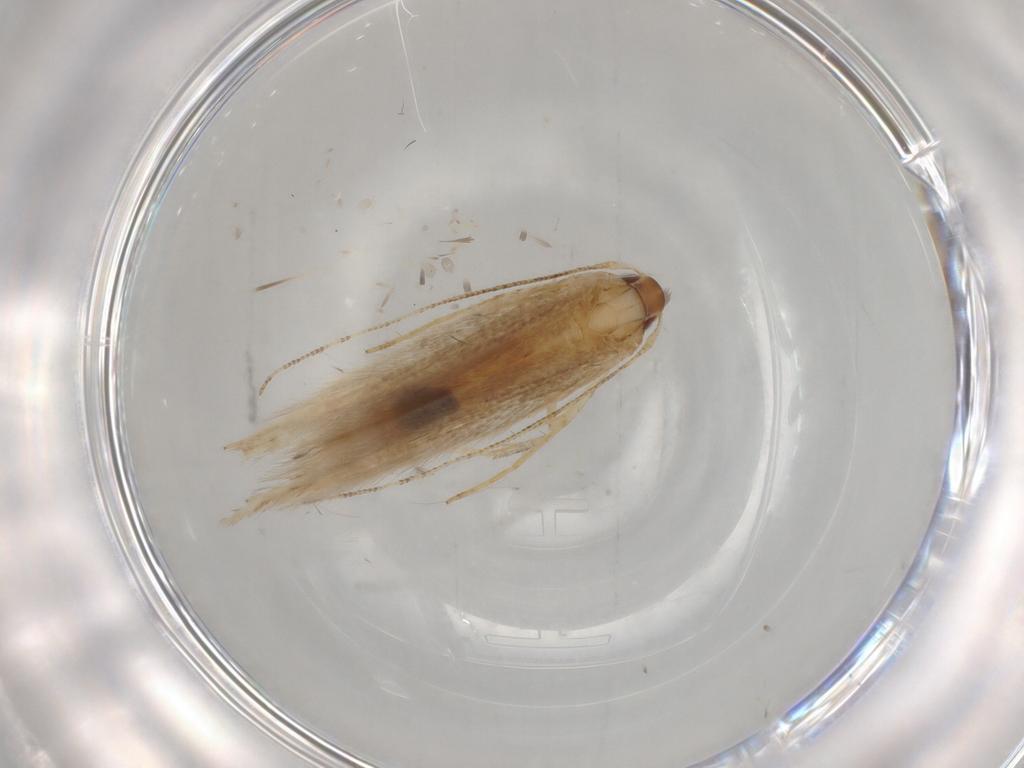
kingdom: Animalia
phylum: Arthropoda
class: Insecta
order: Lepidoptera
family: Cosmopterigidae
